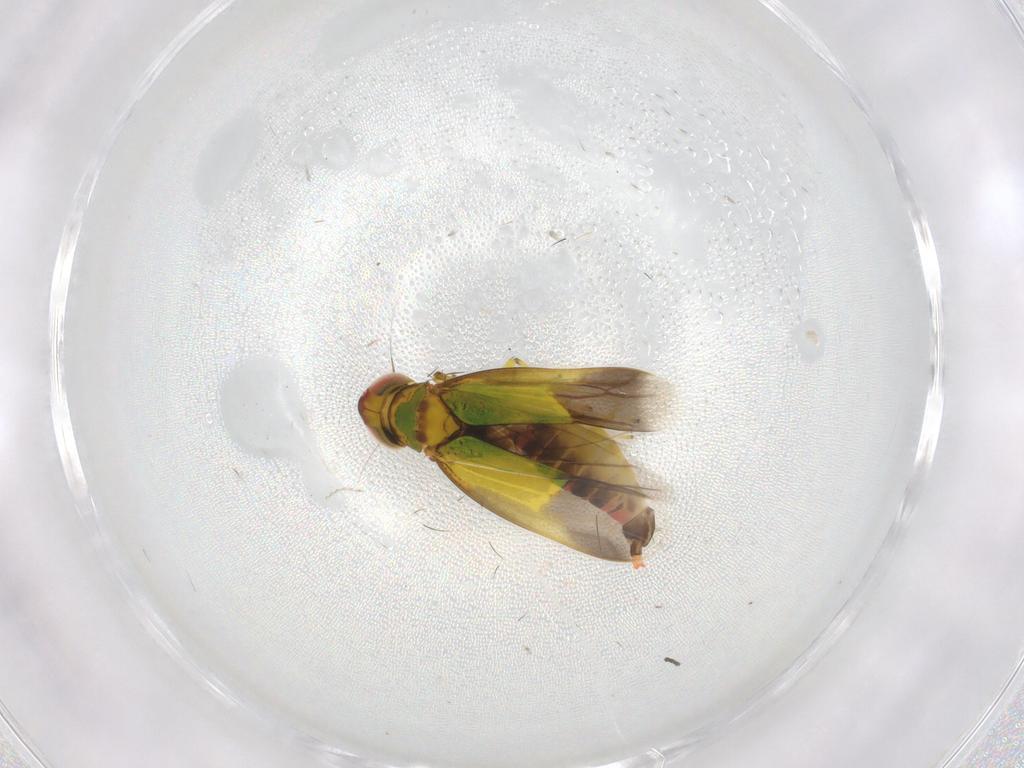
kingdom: Animalia
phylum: Arthropoda
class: Insecta
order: Hemiptera
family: Cicadellidae
